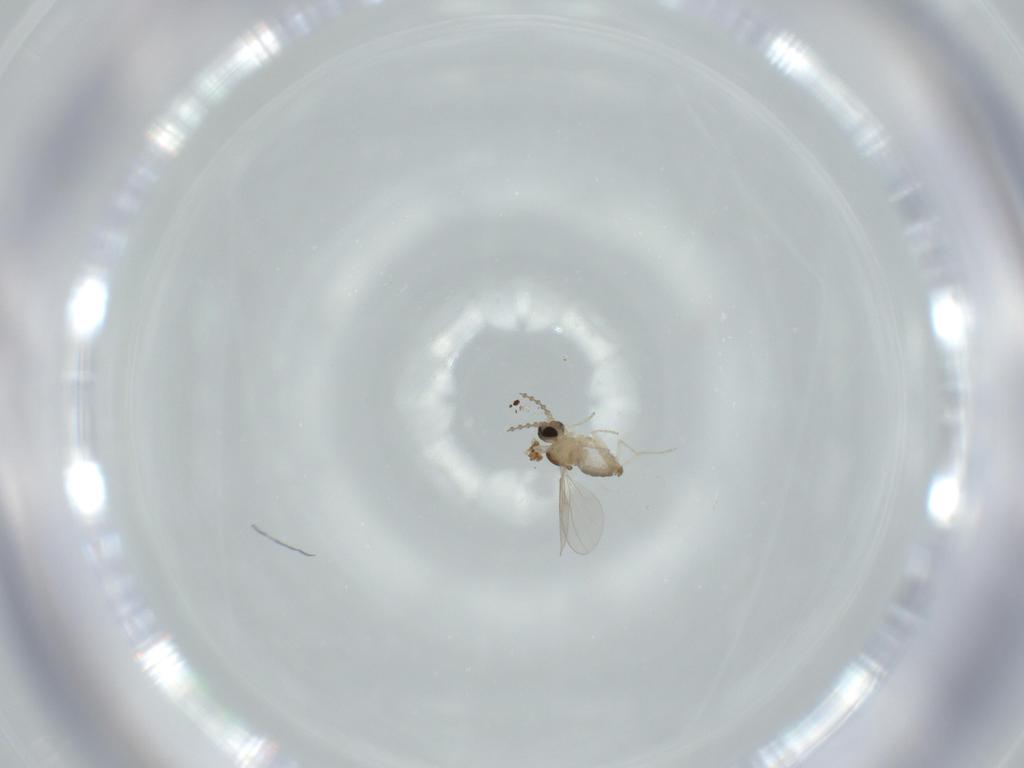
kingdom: Animalia
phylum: Arthropoda
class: Insecta
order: Diptera
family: Cecidomyiidae
